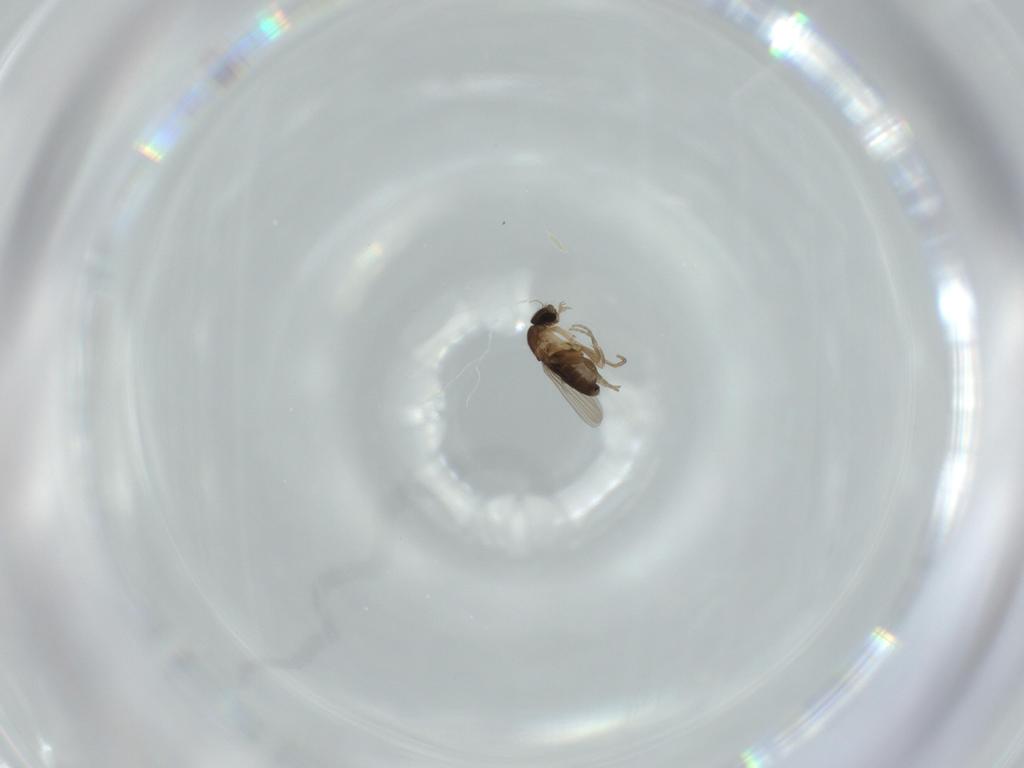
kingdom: Animalia
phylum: Arthropoda
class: Insecta
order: Diptera
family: Phoridae
